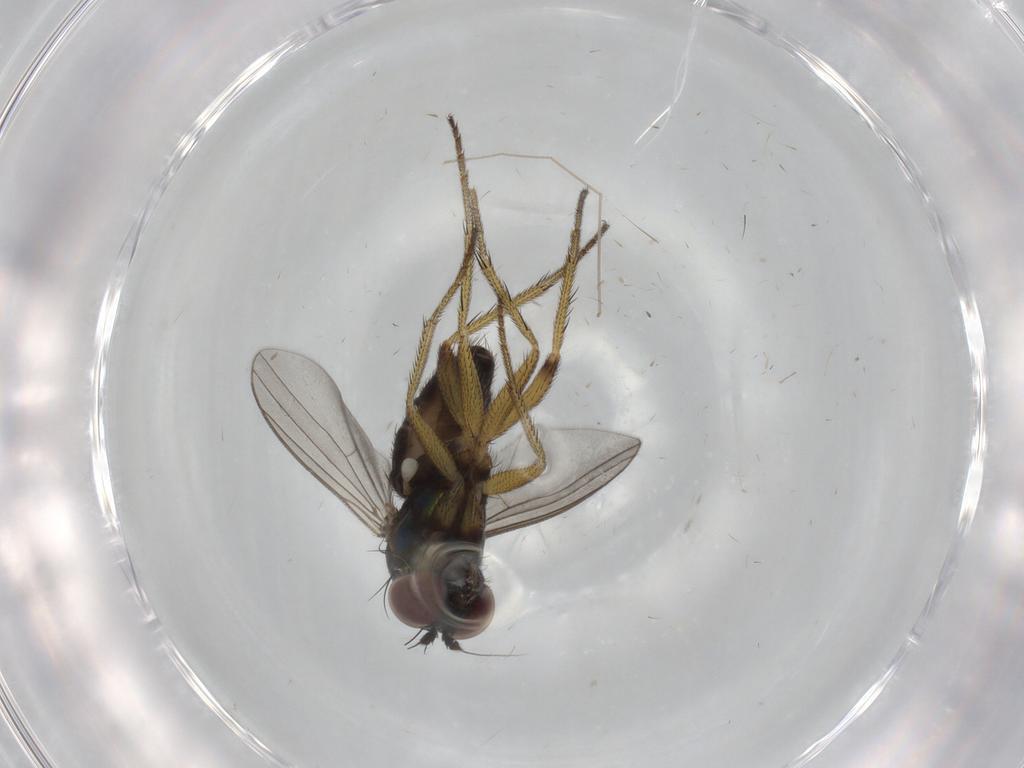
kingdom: Animalia
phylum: Arthropoda
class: Insecta
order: Diptera
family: Dolichopodidae
